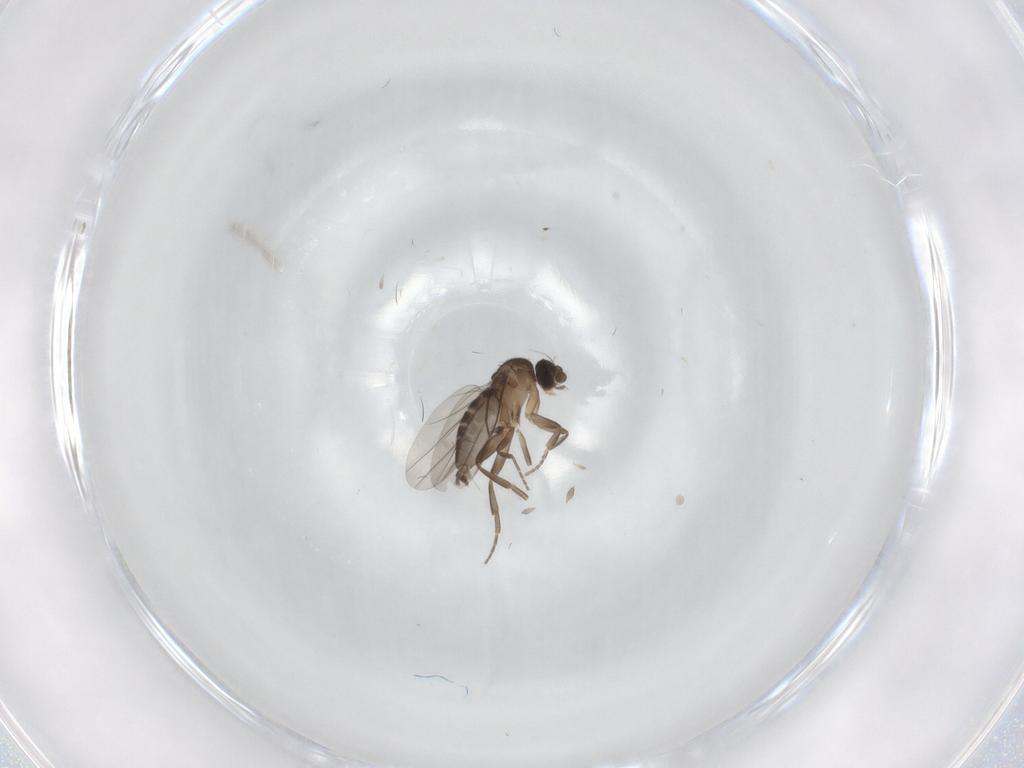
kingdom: Animalia
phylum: Arthropoda
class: Insecta
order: Diptera
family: Phoridae
